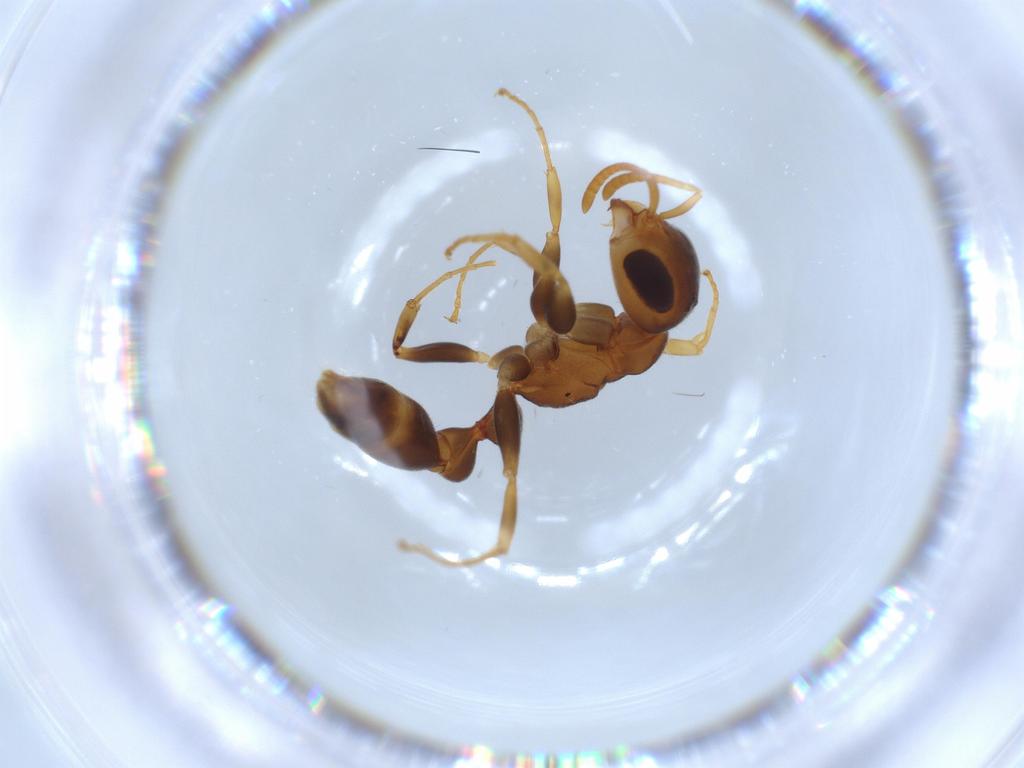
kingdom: Animalia
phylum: Arthropoda
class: Insecta
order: Hymenoptera
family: Formicidae
